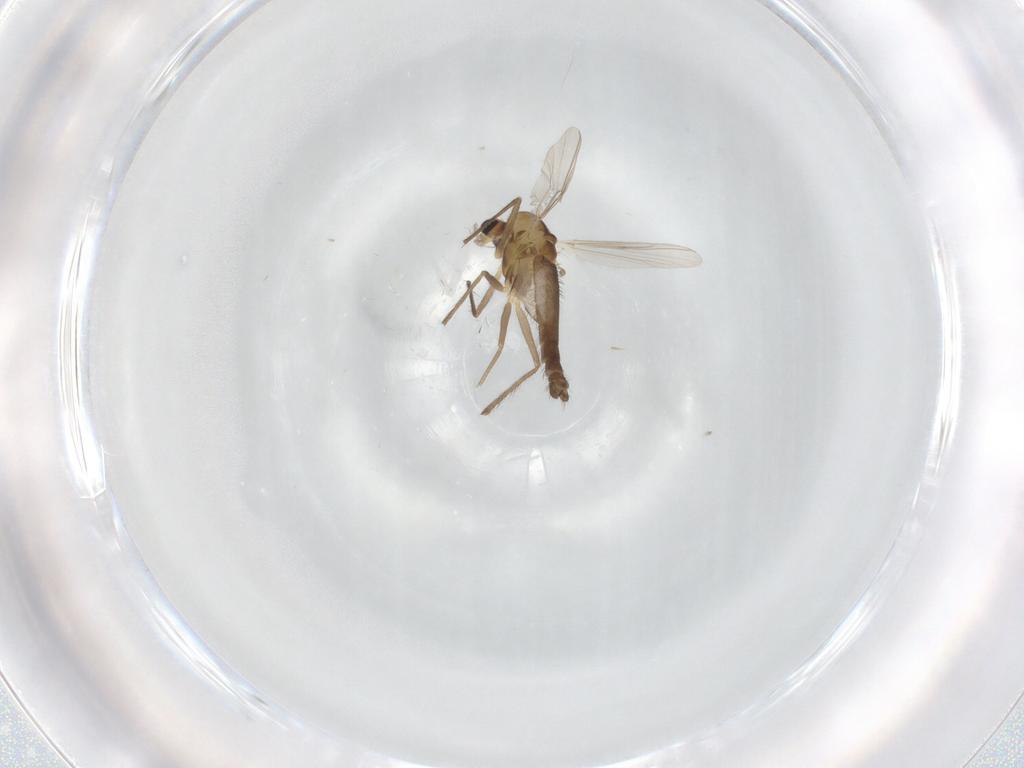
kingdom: Animalia
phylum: Arthropoda
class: Insecta
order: Diptera
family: Chironomidae
